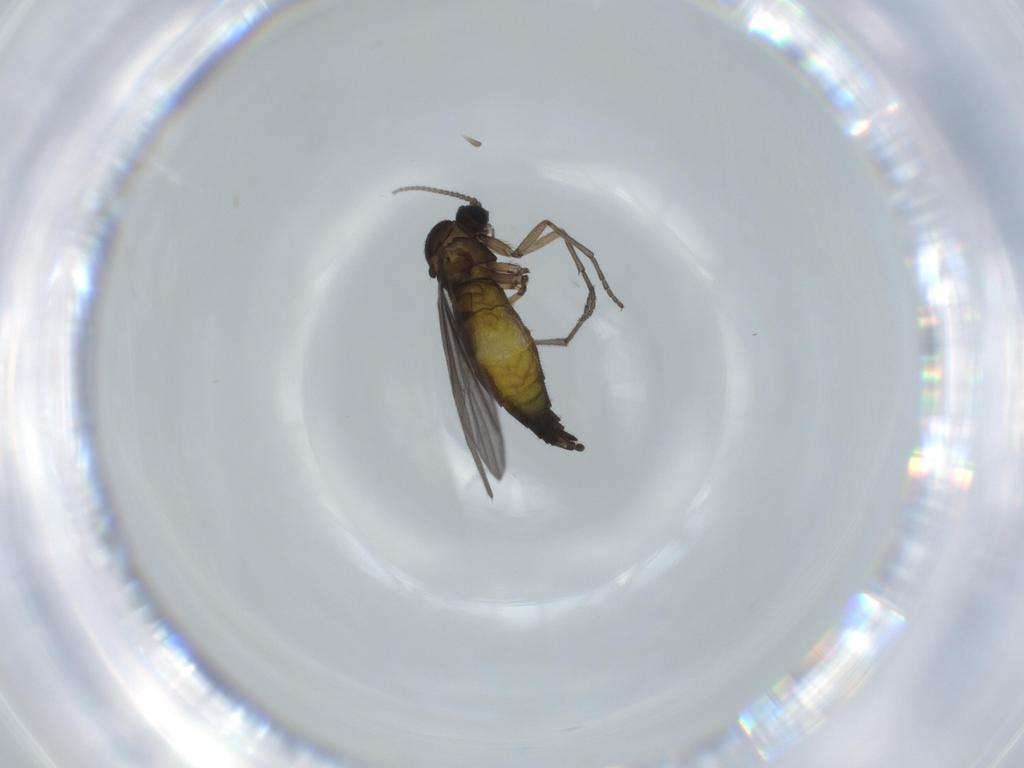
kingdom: Animalia
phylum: Arthropoda
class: Insecta
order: Diptera
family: Sciaridae
